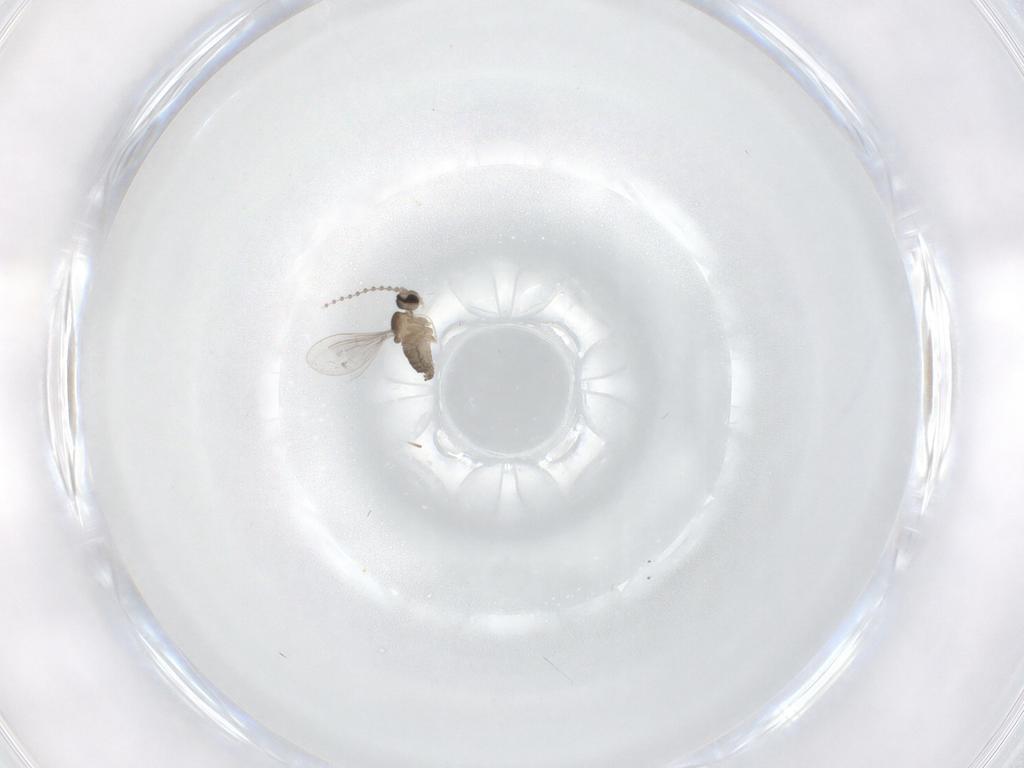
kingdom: Animalia
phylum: Arthropoda
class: Insecta
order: Diptera
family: Cecidomyiidae
